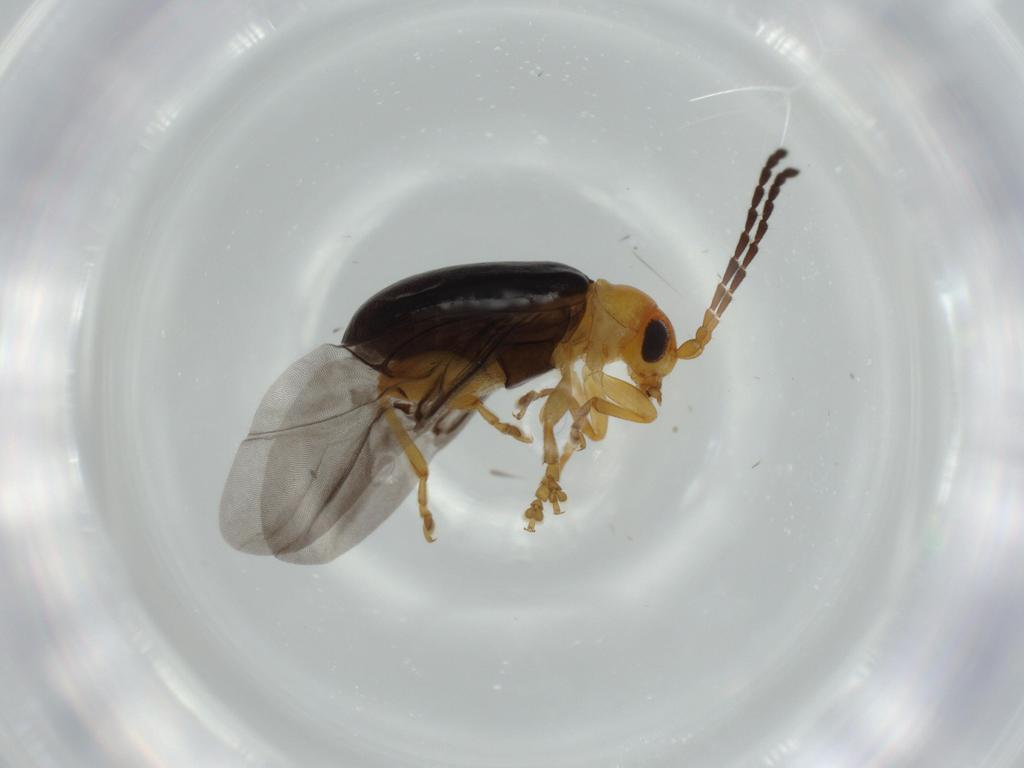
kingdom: Animalia
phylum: Arthropoda
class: Insecta
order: Coleoptera
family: Chrysomelidae
